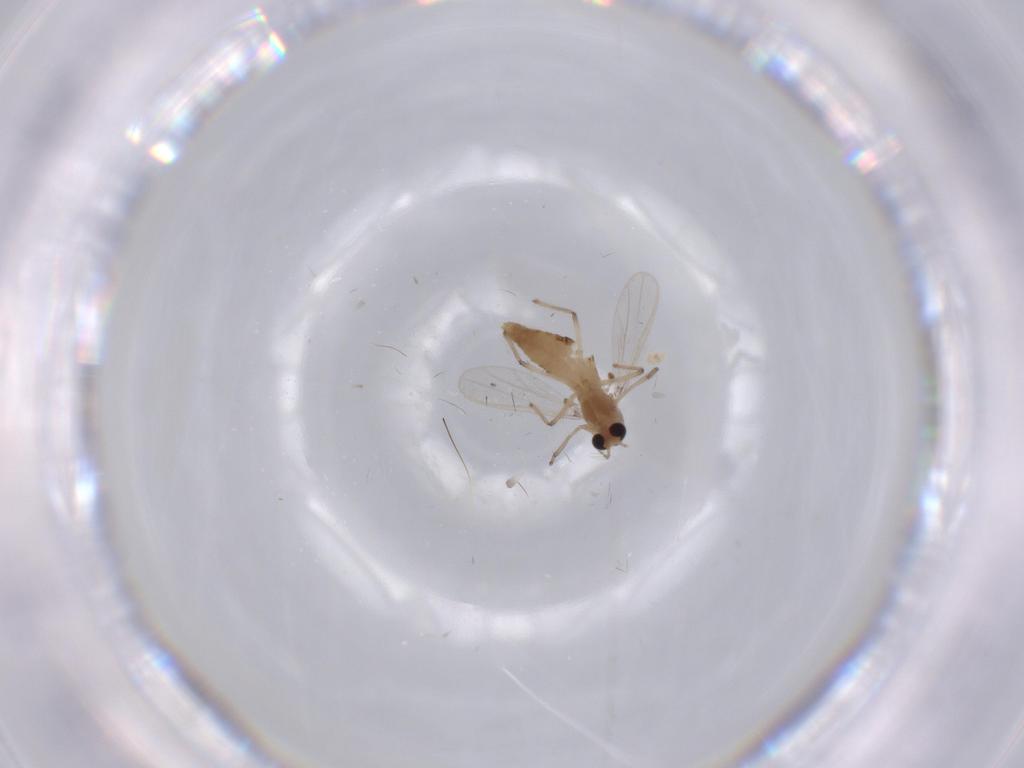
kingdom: Animalia
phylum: Arthropoda
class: Insecta
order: Diptera
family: Chironomidae
